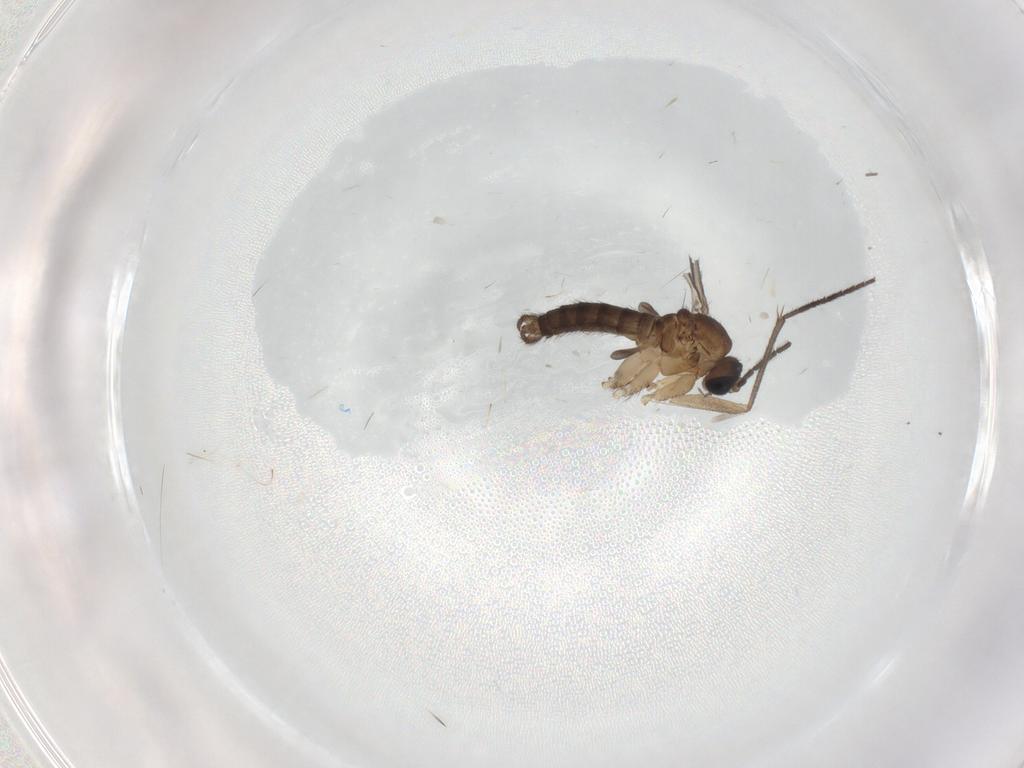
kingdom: Animalia
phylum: Arthropoda
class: Insecta
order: Diptera
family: Sciaridae
